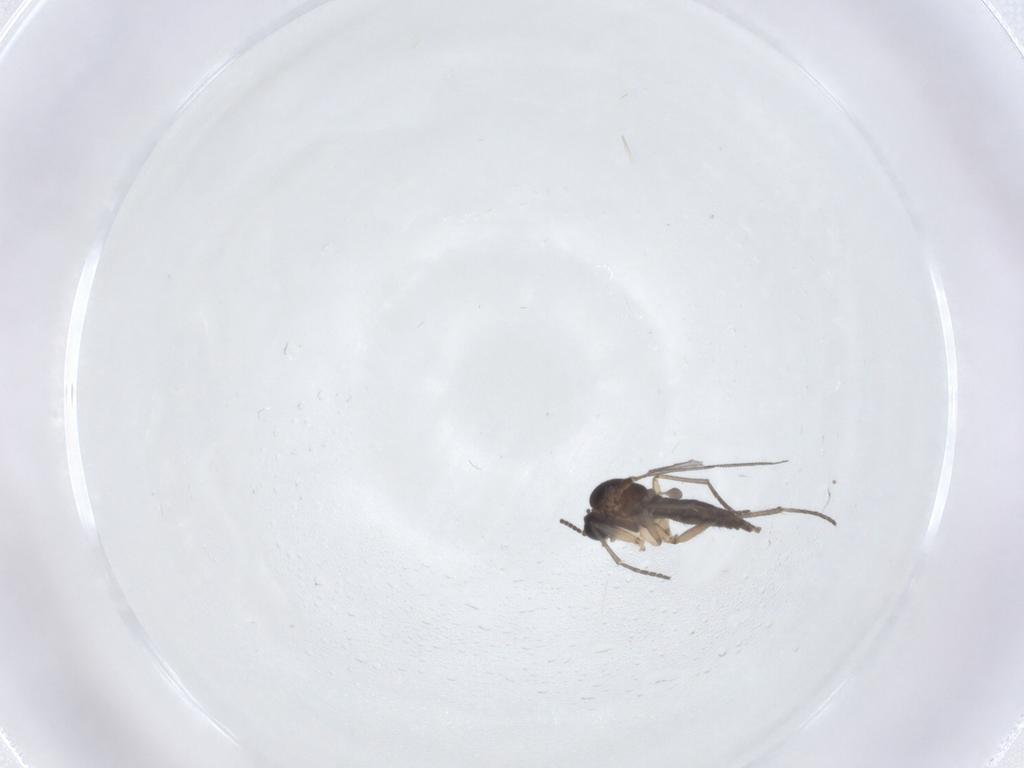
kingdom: Animalia
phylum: Arthropoda
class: Insecta
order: Diptera
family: Sciaridae
